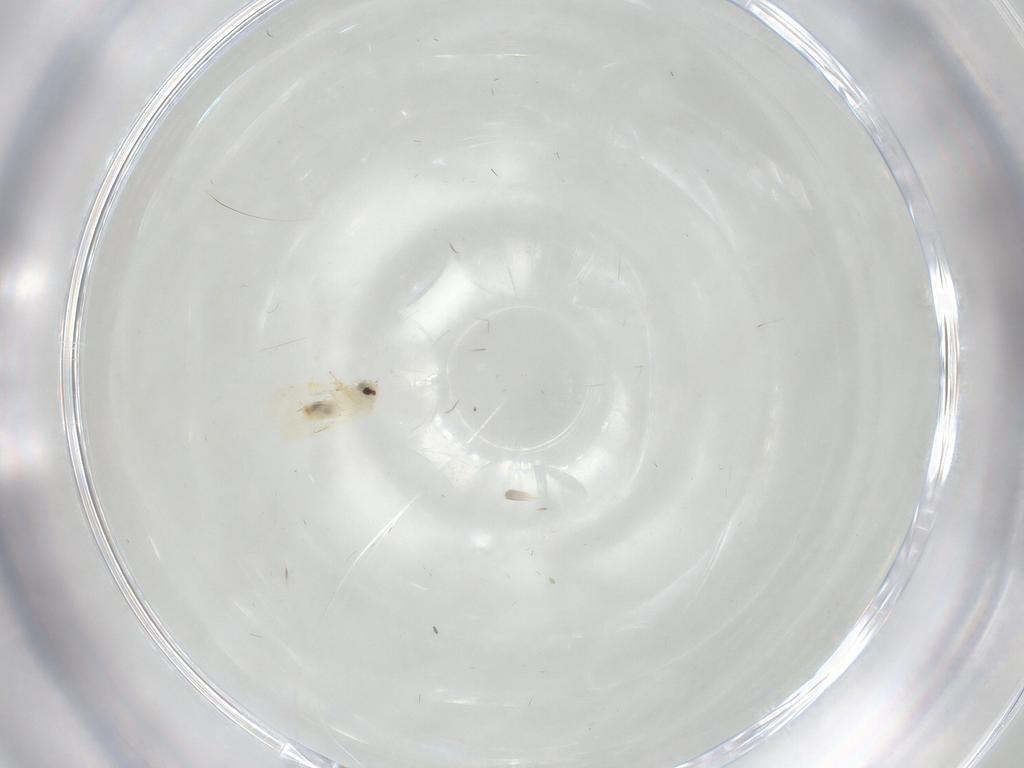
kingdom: Animalia
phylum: Arthropoda
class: Insecta
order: Hemiptera
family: Aleyrodidae
